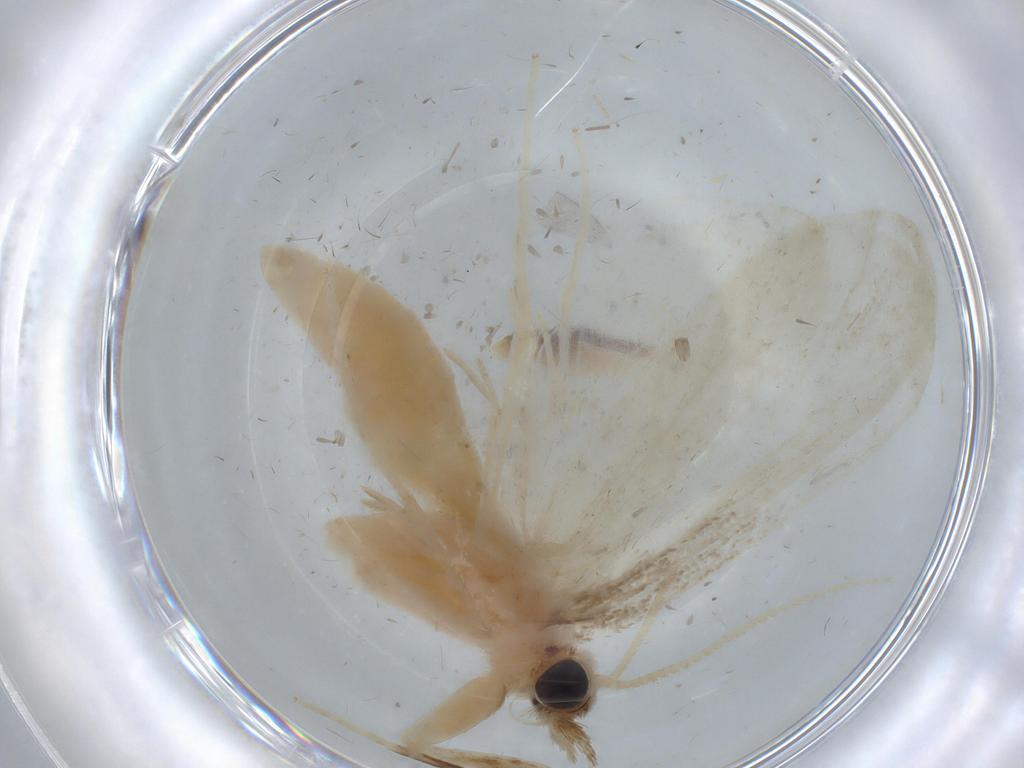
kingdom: Animalia
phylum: Arthropoda
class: Insecta
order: Lepidoptera
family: Crambidae
